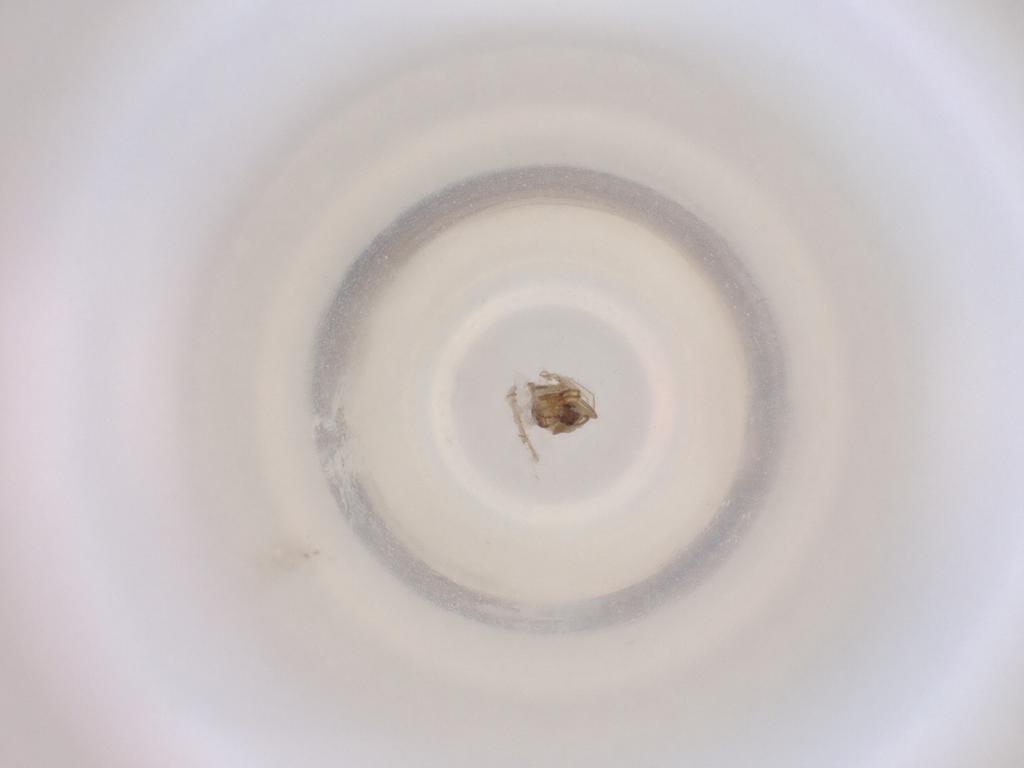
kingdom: Animalia
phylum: Arthropoda
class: Insecta
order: Diptera
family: Cecidomyiidae
